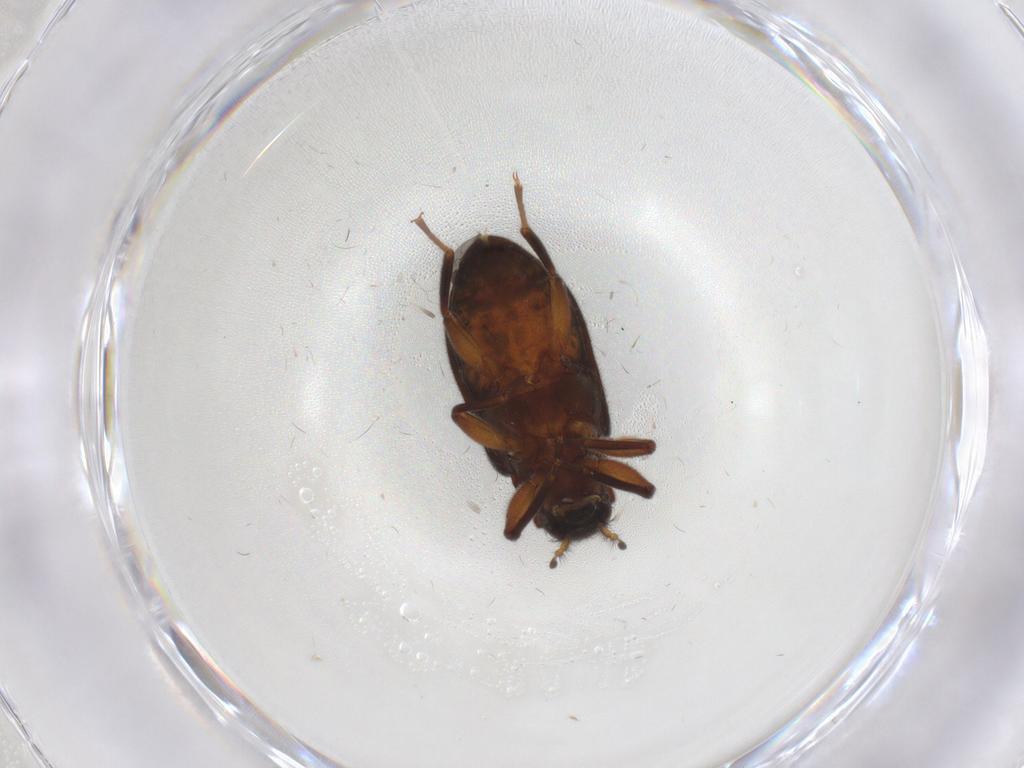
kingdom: Animalia
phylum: Arthropoda
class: Insecta
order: Coleoptera
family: Elmidae
